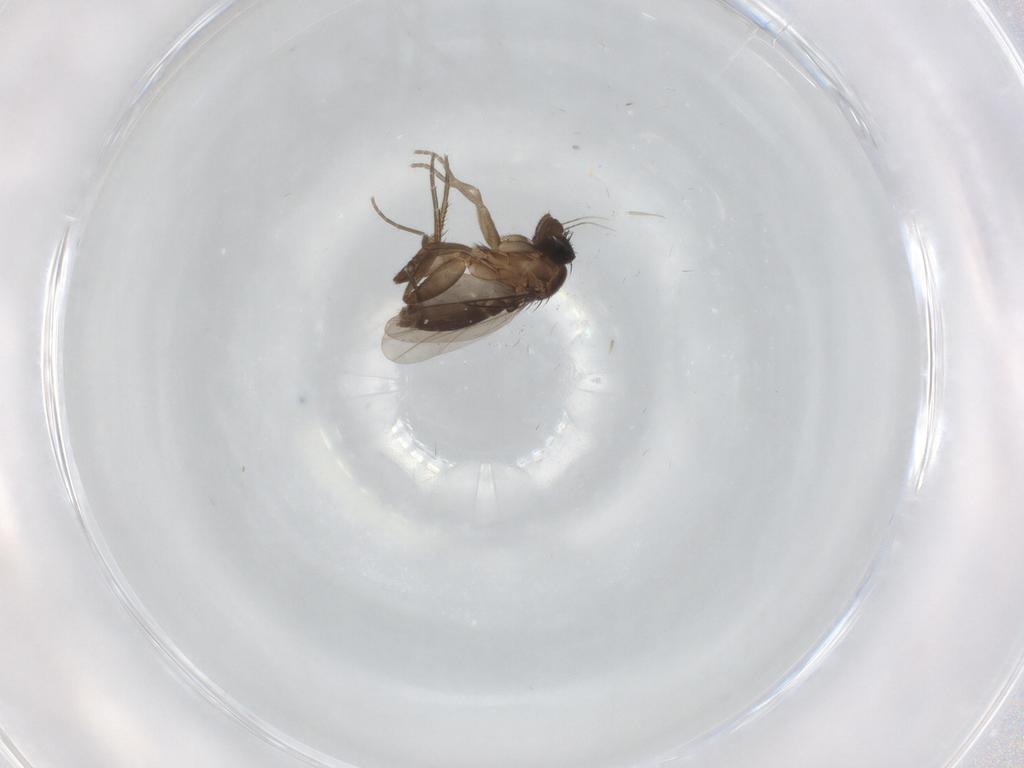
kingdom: Animalia
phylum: Arthropoda
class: Insecta
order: Diptera
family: Phoridae
